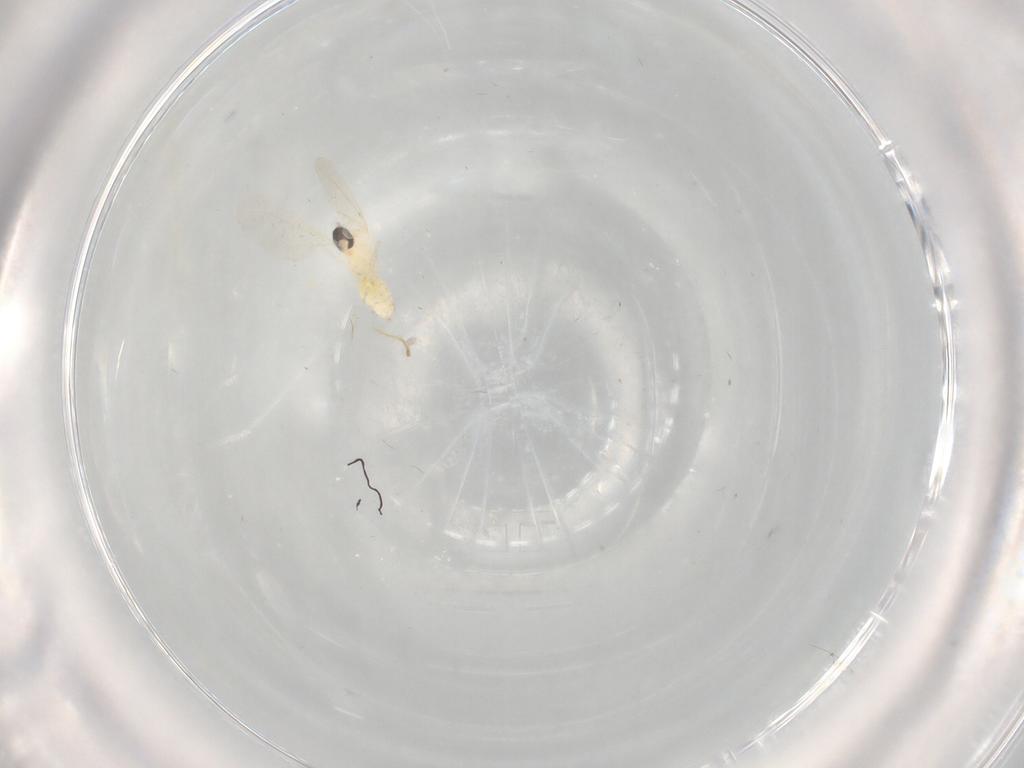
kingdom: Animalia
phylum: Arthropoda
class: Insecta
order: Diptera
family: Cecidomyiidae
